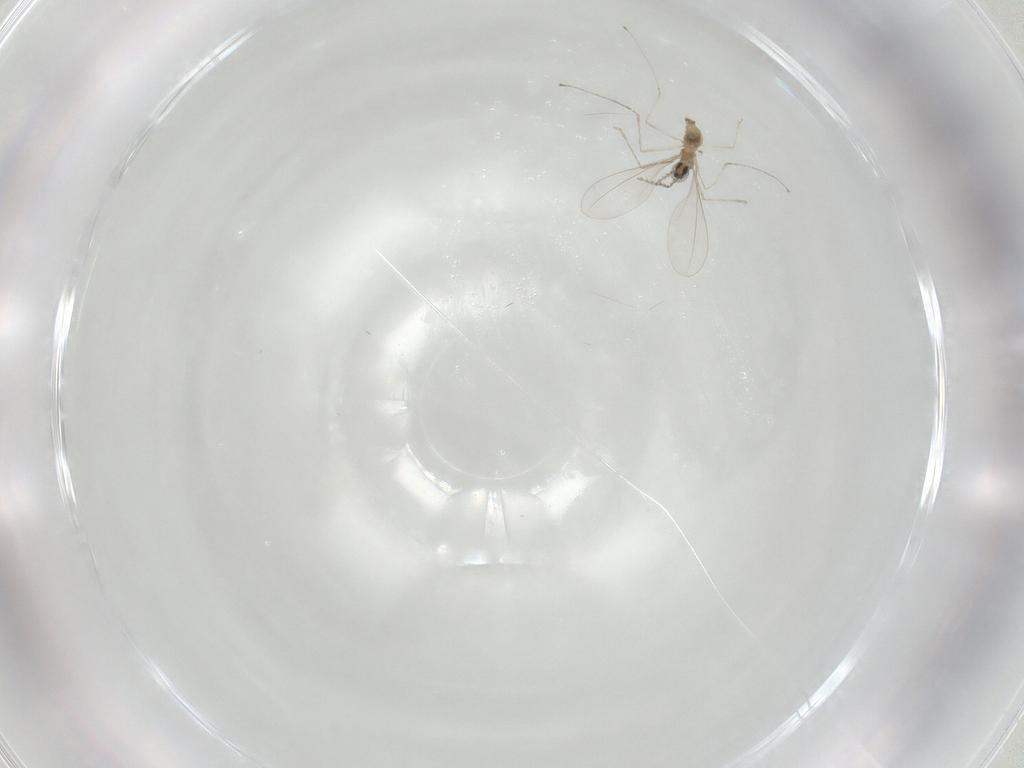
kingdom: Animalia
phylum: Arthropoda
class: Insecta
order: Diptera
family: Cecidomyiidae
